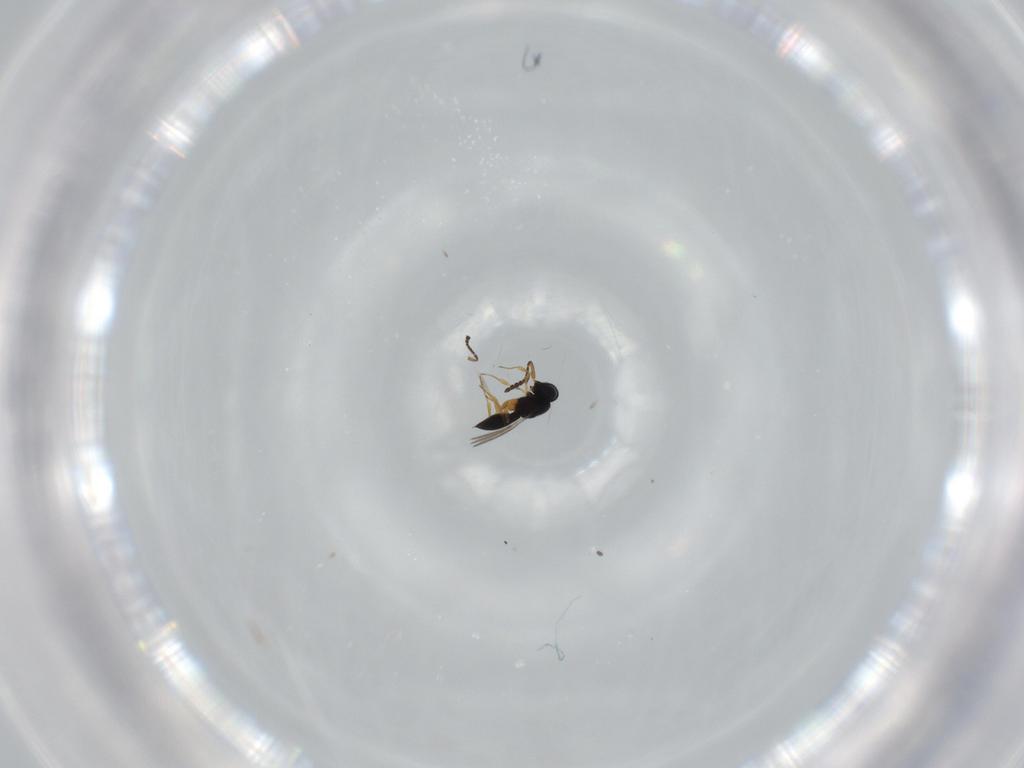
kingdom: Animalia
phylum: Arthropoda
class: Insecta
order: Hymenoptera
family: Scelionidae
